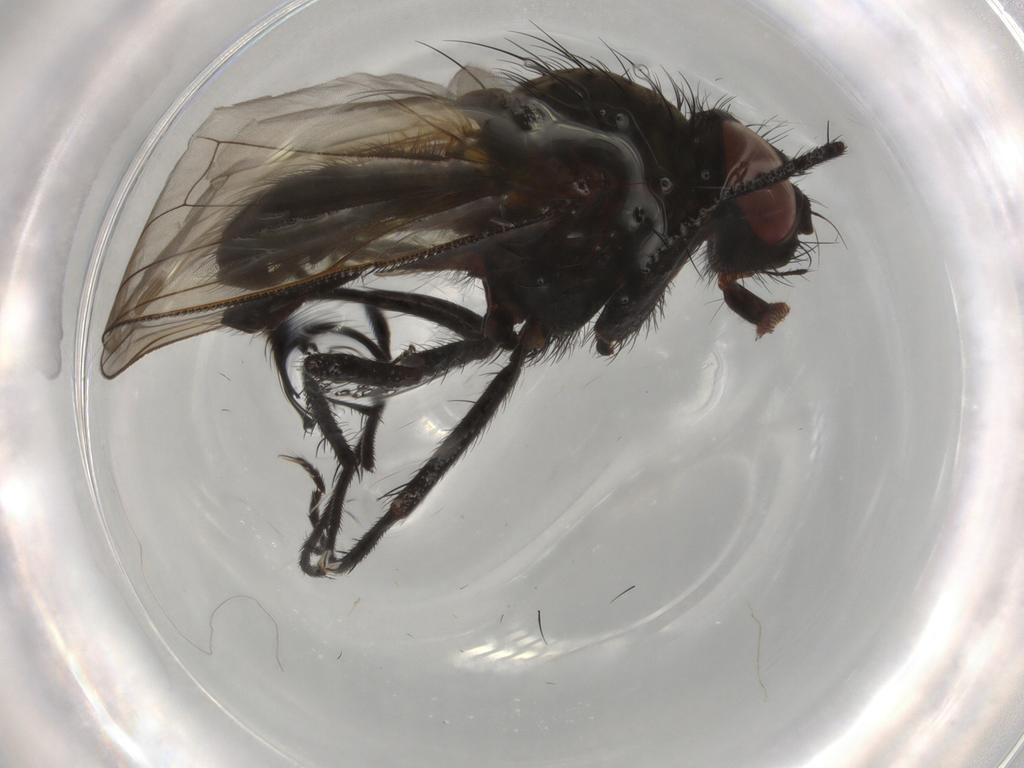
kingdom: Animalia
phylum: Arthropoda
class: Insecta
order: Diptera
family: Anthomyiidae
